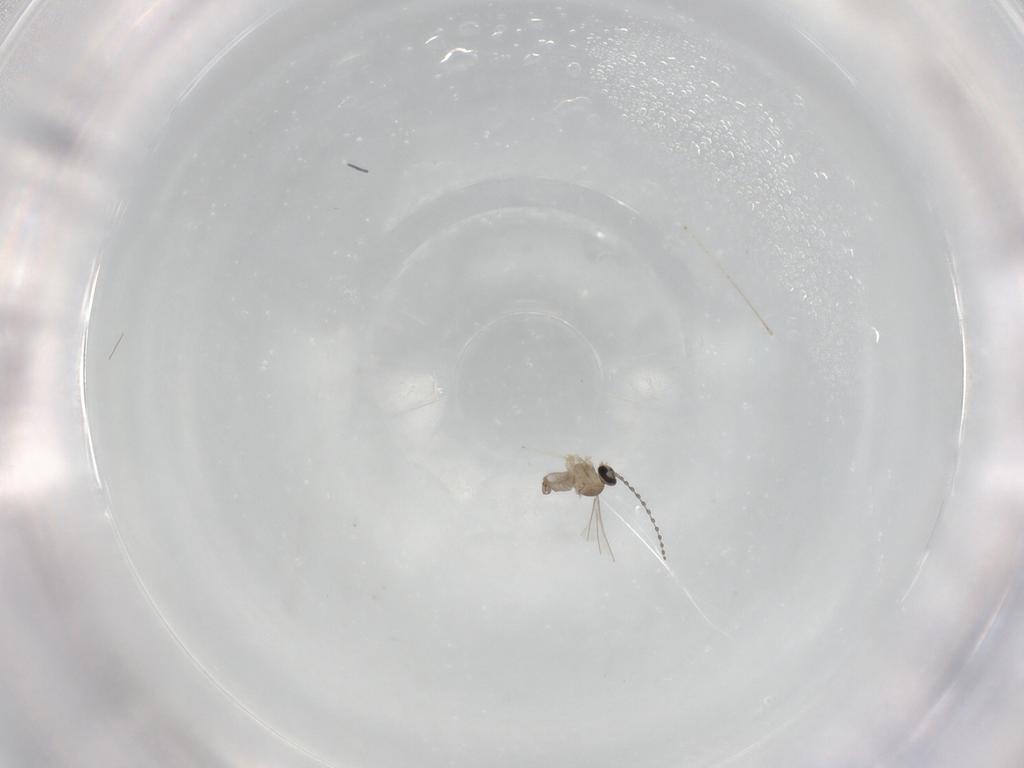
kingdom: Animalia
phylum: Arthropoda
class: Insecta
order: Diptera
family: Cecidomyiidae
